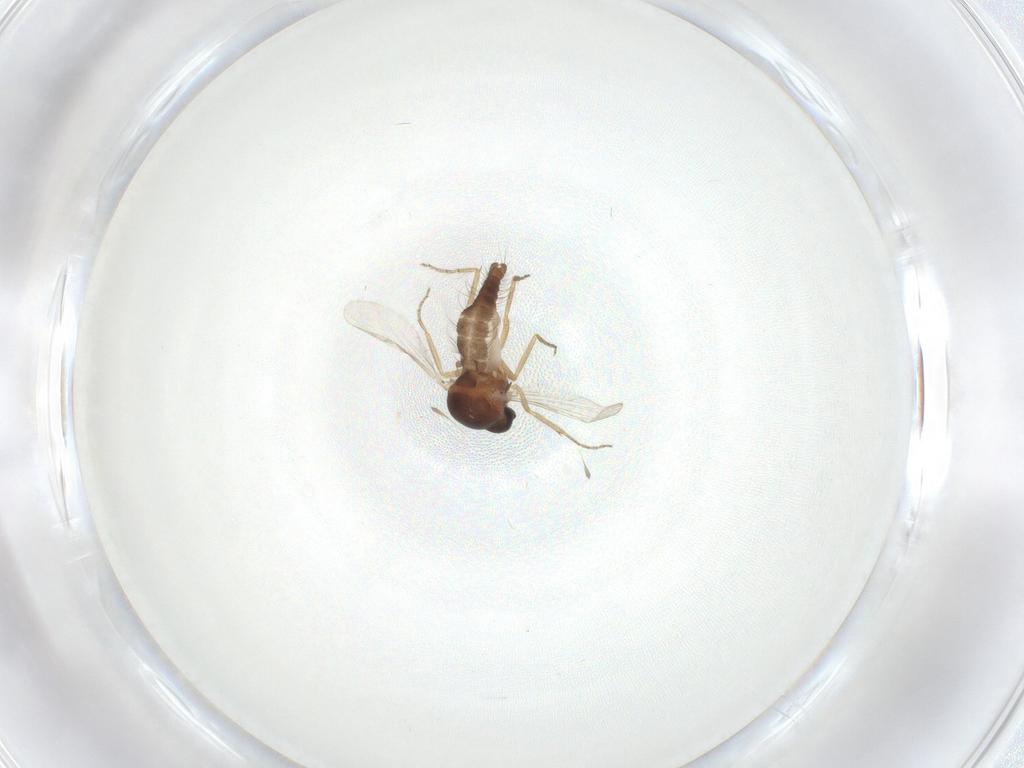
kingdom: Animalia
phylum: Arthropoda
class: Insecta
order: Diptera
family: Ceratopogonidae
